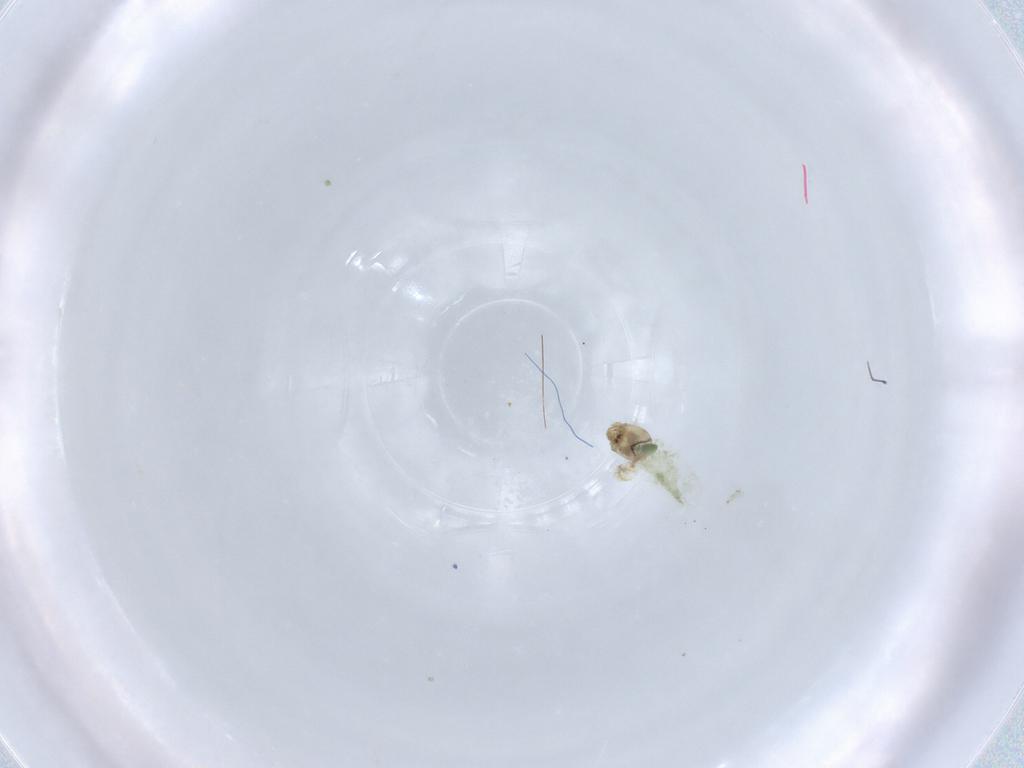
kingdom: Animalia
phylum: Arthropoda
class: Insecta
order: Diptera
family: Chironomidae
